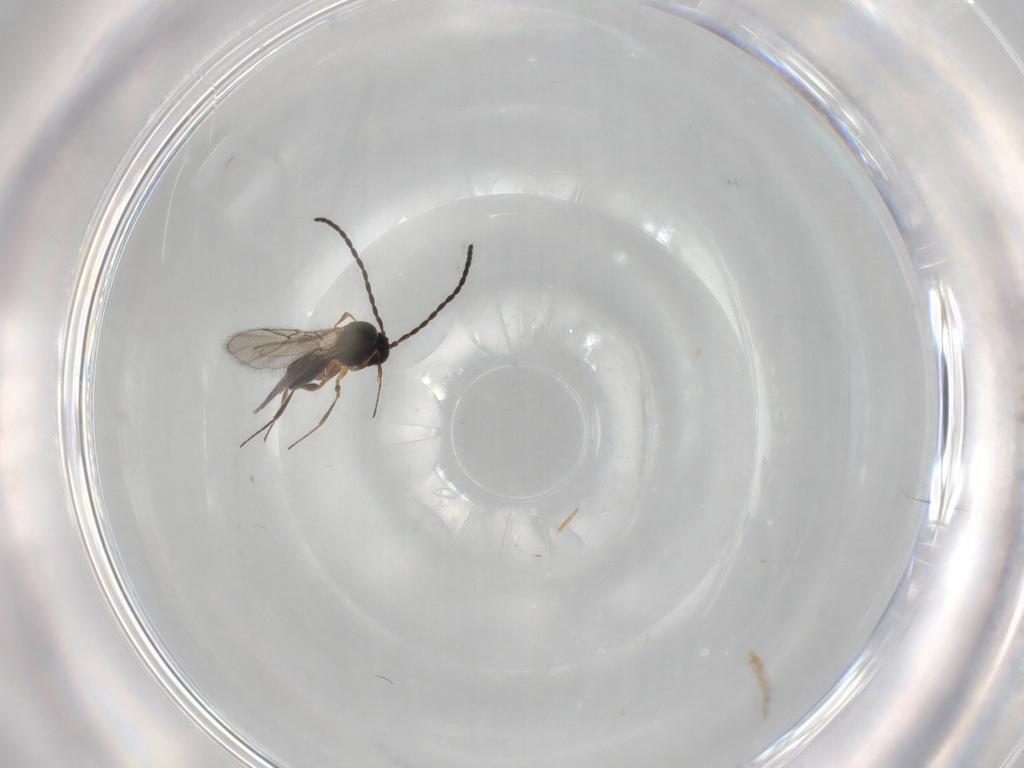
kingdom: Animalia
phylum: Arthropoda
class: Insecta
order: Hymenoptera
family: Figitidae
